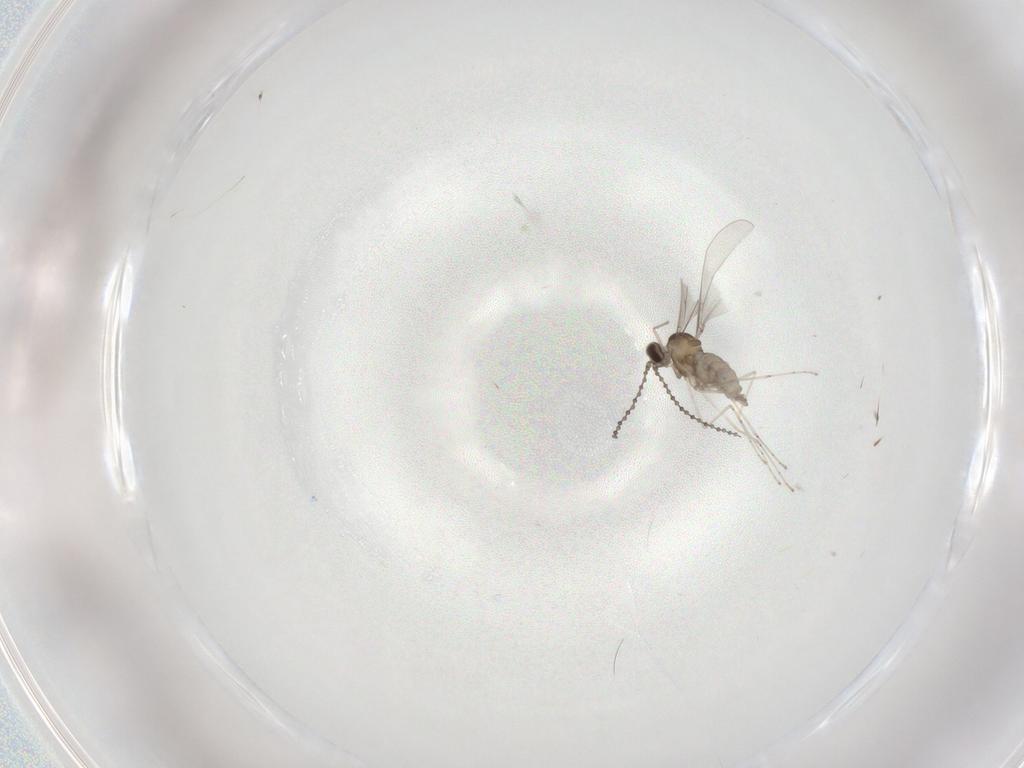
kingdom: Animalia
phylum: Arthropoda
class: Insecta
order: Diptera
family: Cecidomyiidae
